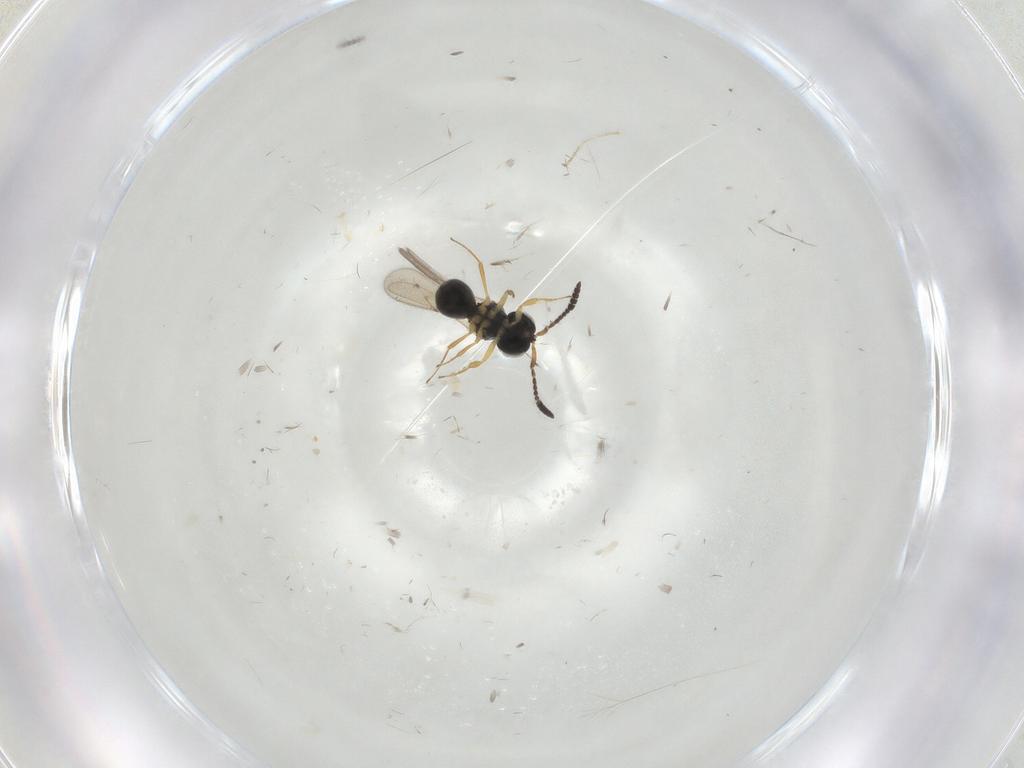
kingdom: Animalia
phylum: Arthropoda
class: Insecta
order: Hymenoptera
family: Scelionidae
